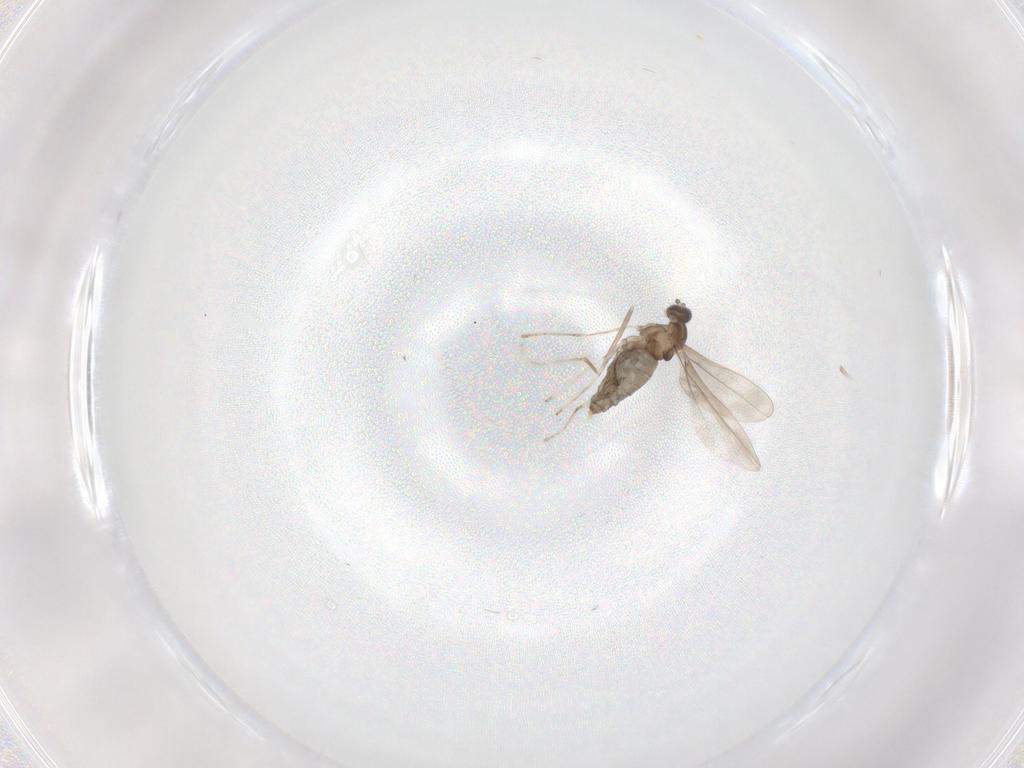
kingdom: Animalia
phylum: Arthropoda
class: Insecta
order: Diptera
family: Cecidomyiidae
